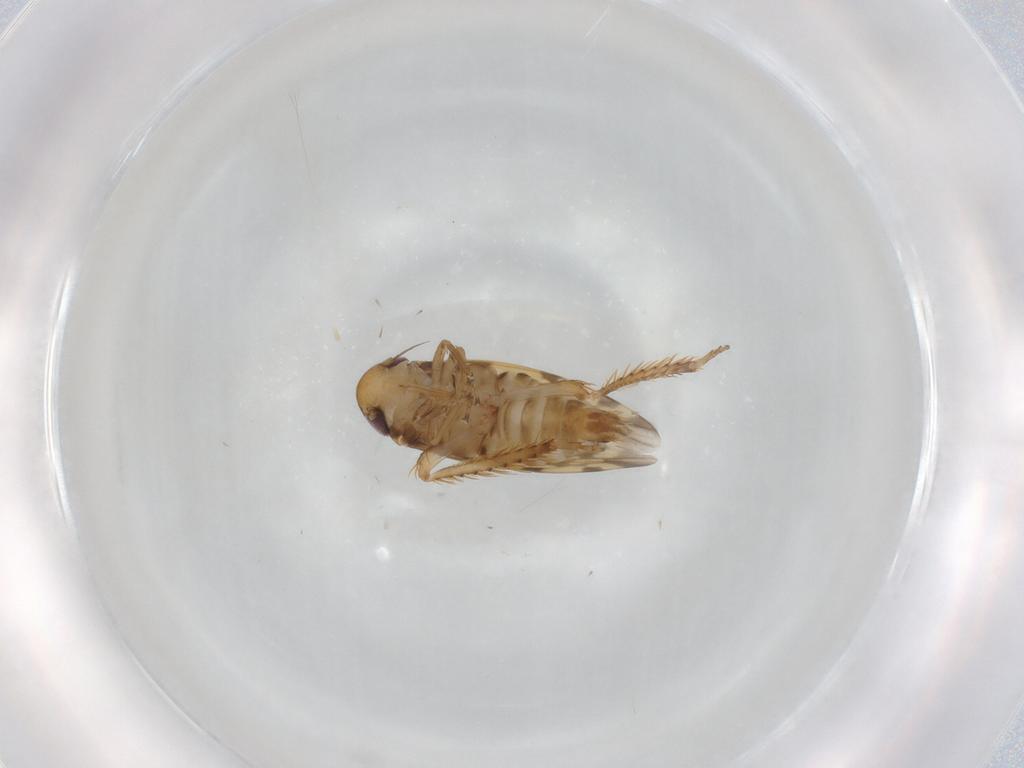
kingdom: Animalia
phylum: Arthropoda
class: Insecta
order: Hemiptera
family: Cicadellidae
